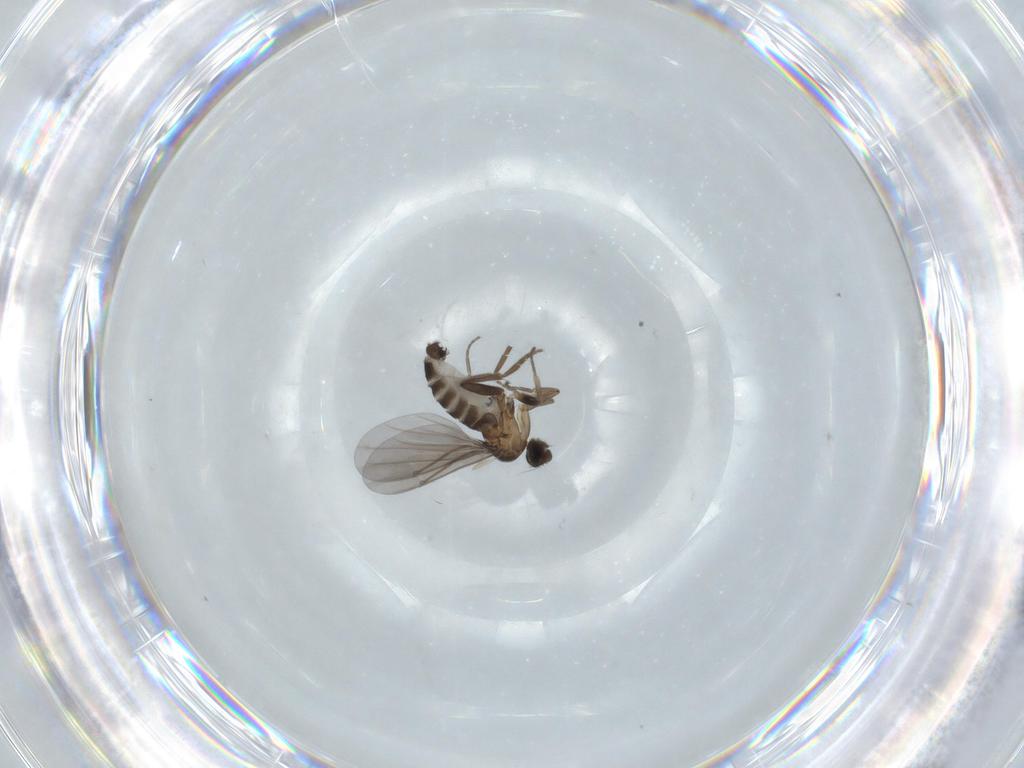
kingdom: Animalia
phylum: Arthropoda
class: Insecta
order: Diptera
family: Phoridae
